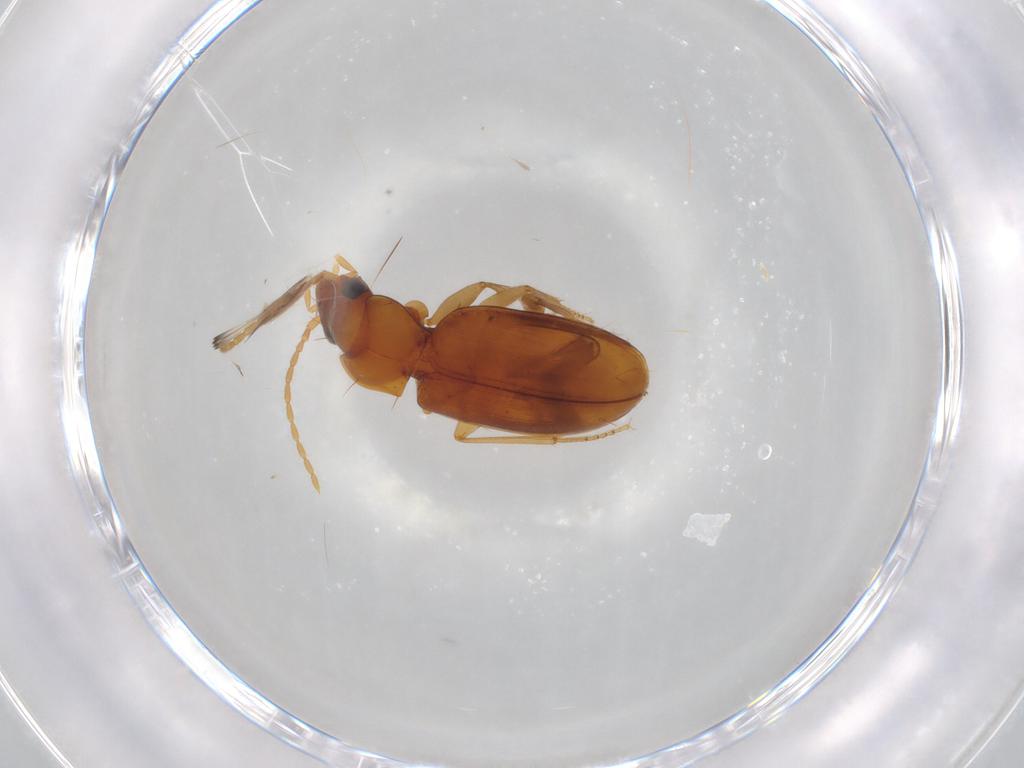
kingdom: Animalia
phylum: Arthropoda
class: Insecta
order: Coleoptera
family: Carabidae
